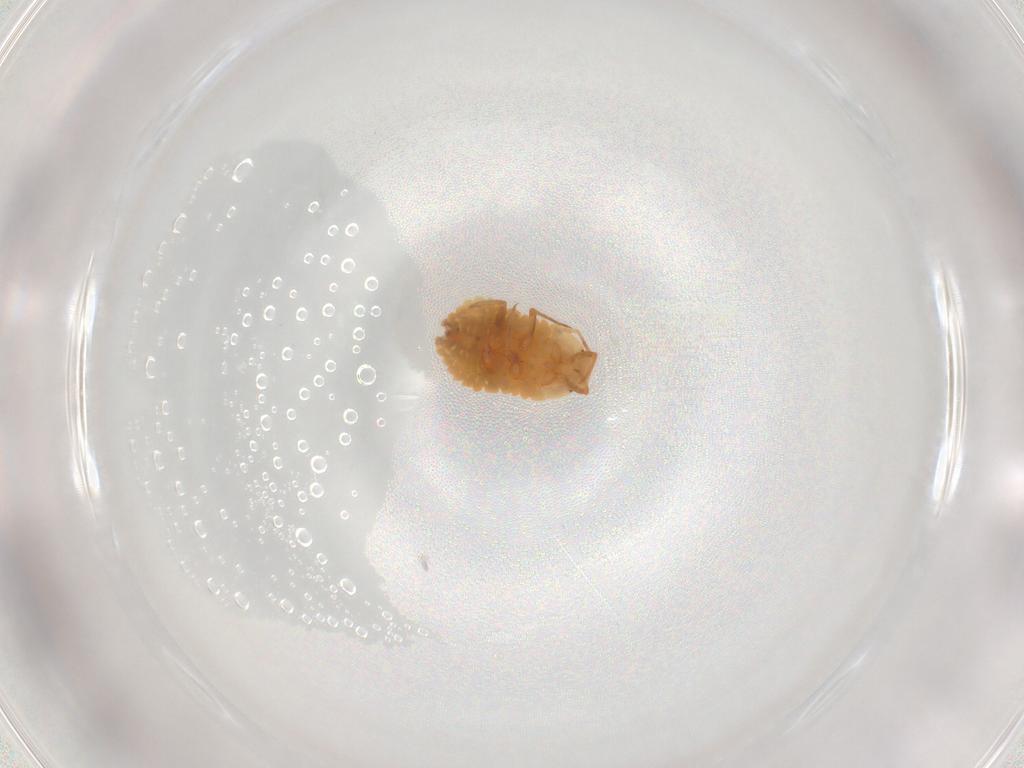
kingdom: Animalia
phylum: Arthropoda
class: Insecta
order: Hemiptera
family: Pseudococcidae
